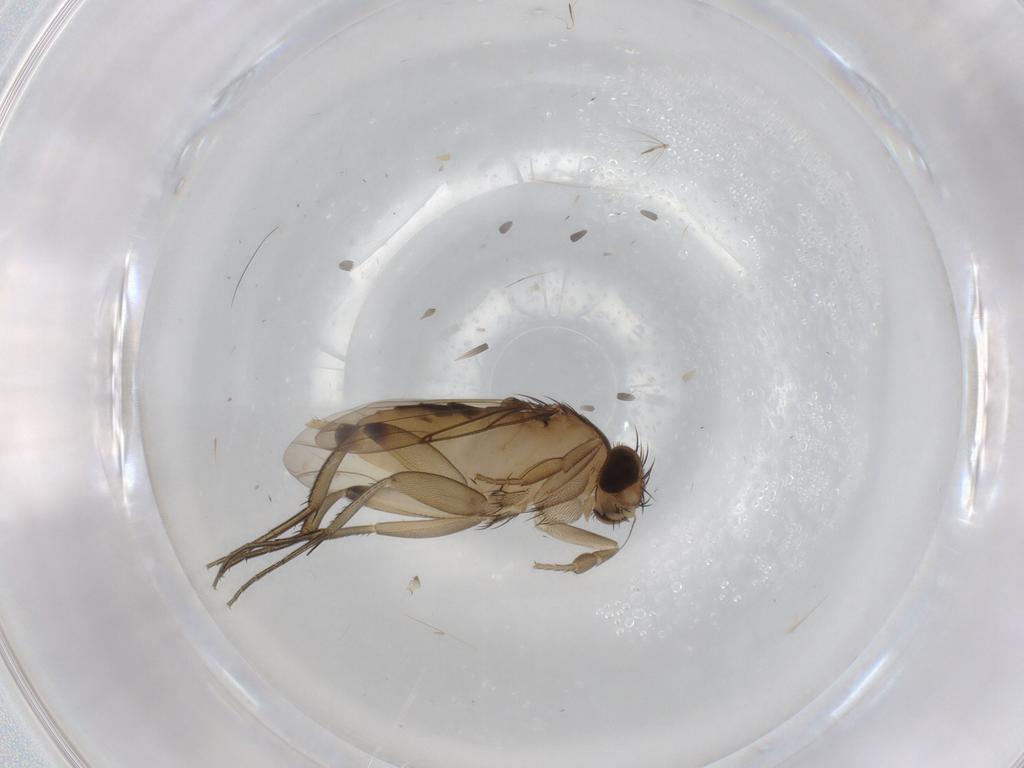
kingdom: Animalia
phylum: Arthropoda
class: Insecta
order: Diptera
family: Phoridae
